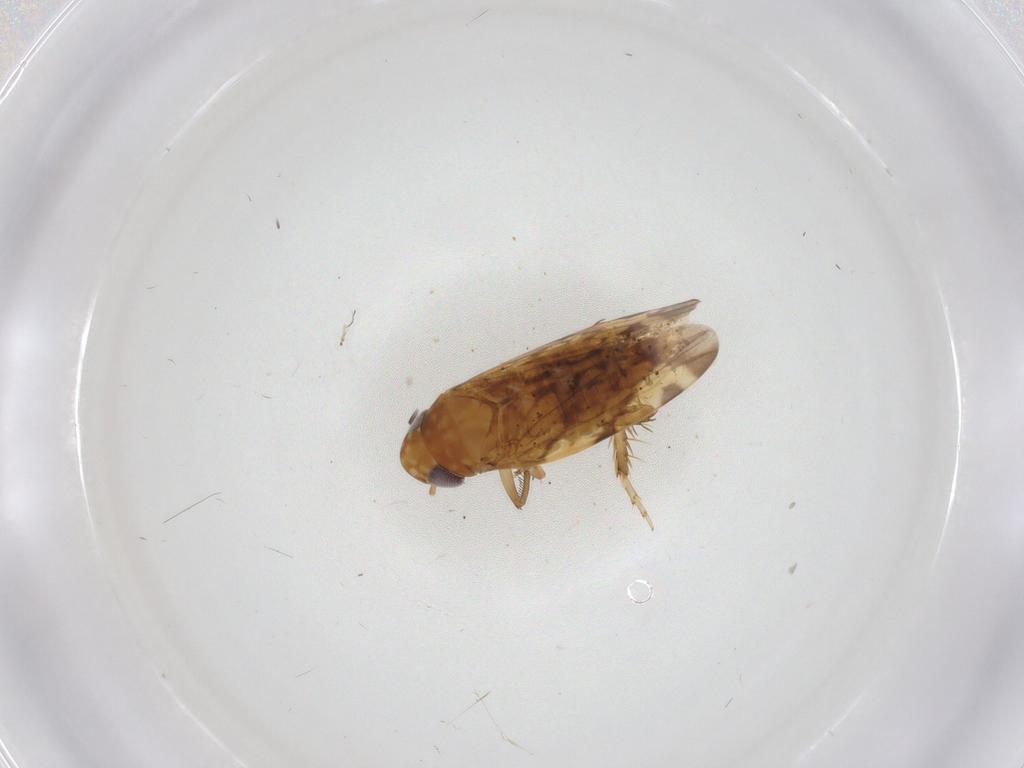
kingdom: Animalia
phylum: Arthropoda
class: Insecta
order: Hemiptera
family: Cicadellidae
